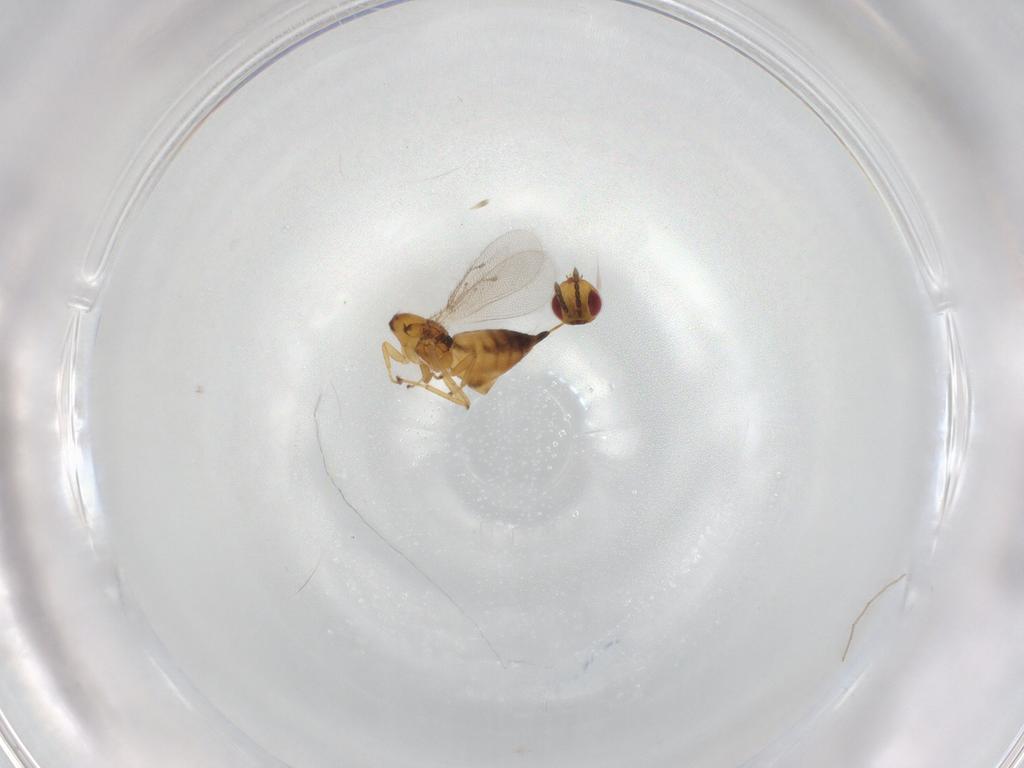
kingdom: Animalia
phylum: Arthropoda
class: Insecta
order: Hymenoptera
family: Eulophidae
